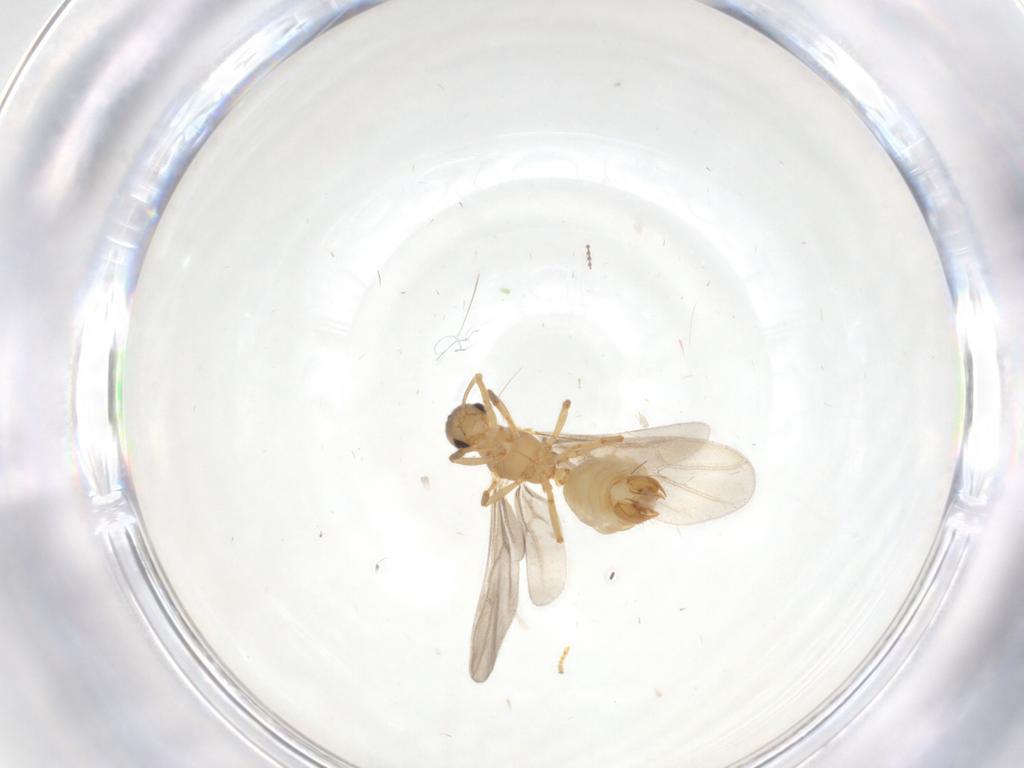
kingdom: Animalia
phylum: Arthropoda
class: Insecta
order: Hymenoptera
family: Formicidae
